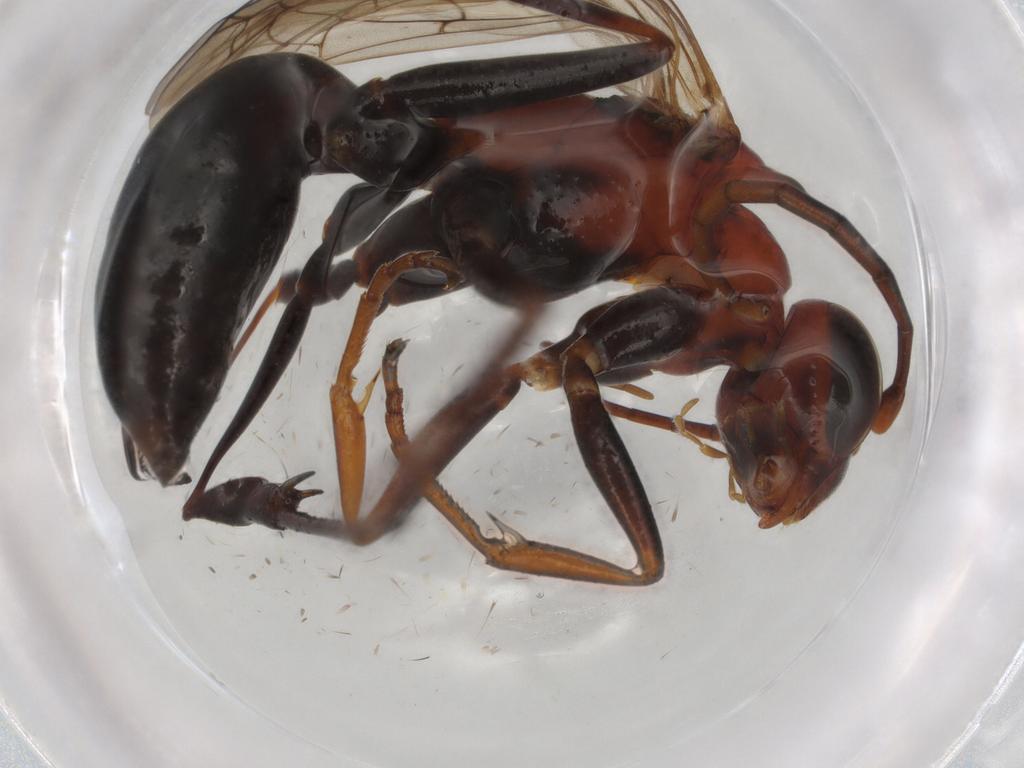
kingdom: Animalia
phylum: Arthropoda
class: Insecta
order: Hymenoptera
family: Pompilidae
